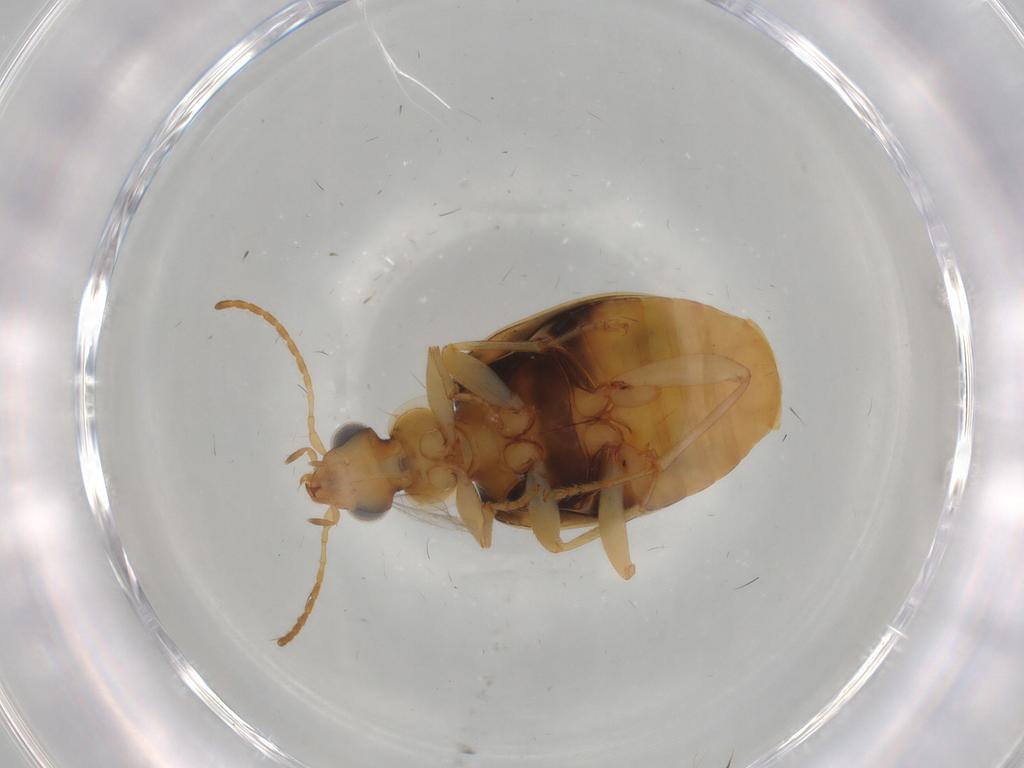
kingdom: Animalia
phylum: Arthropoda
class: Insecta
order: Coleoptera
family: Carabidae
